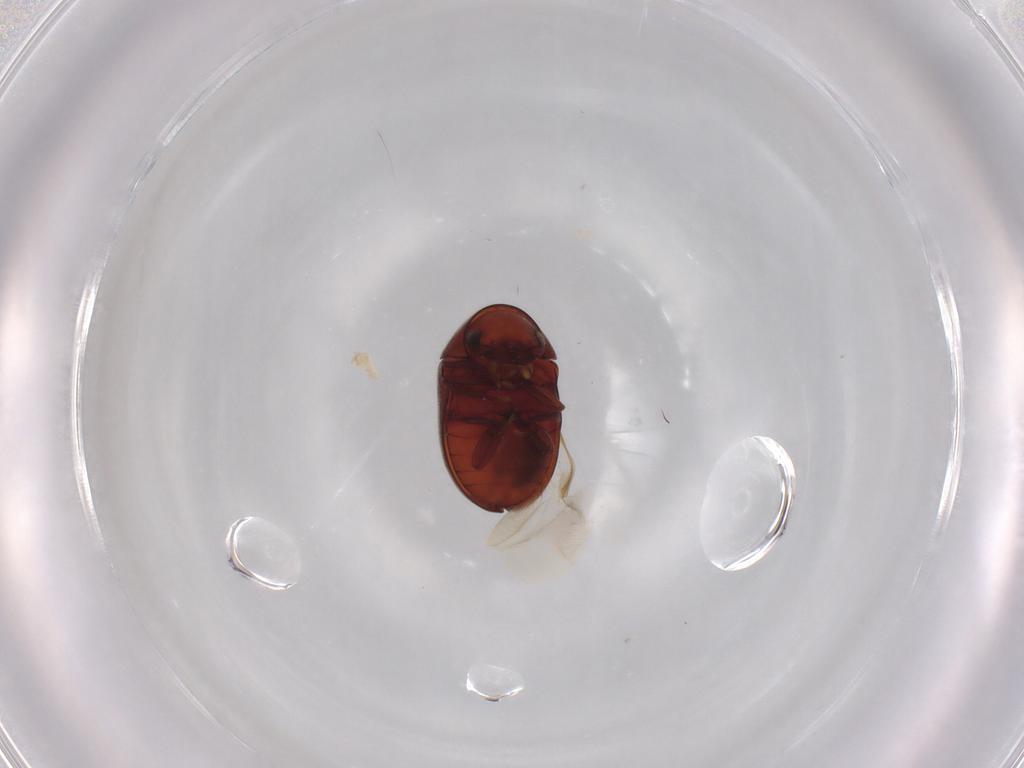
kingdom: Animalia
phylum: Arthropoda
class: Insecta
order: Coleoptera
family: Ptinidae
